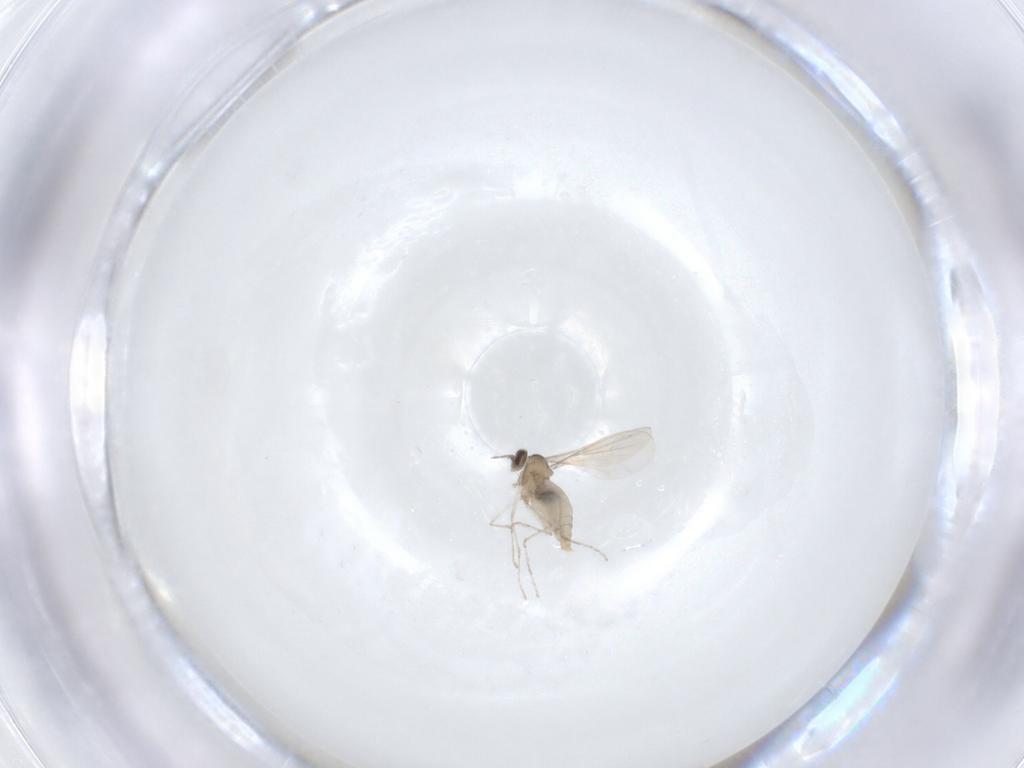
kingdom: Animalia
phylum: Arthropoda
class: Insecta
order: Diptera
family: Cecidomyiidae
